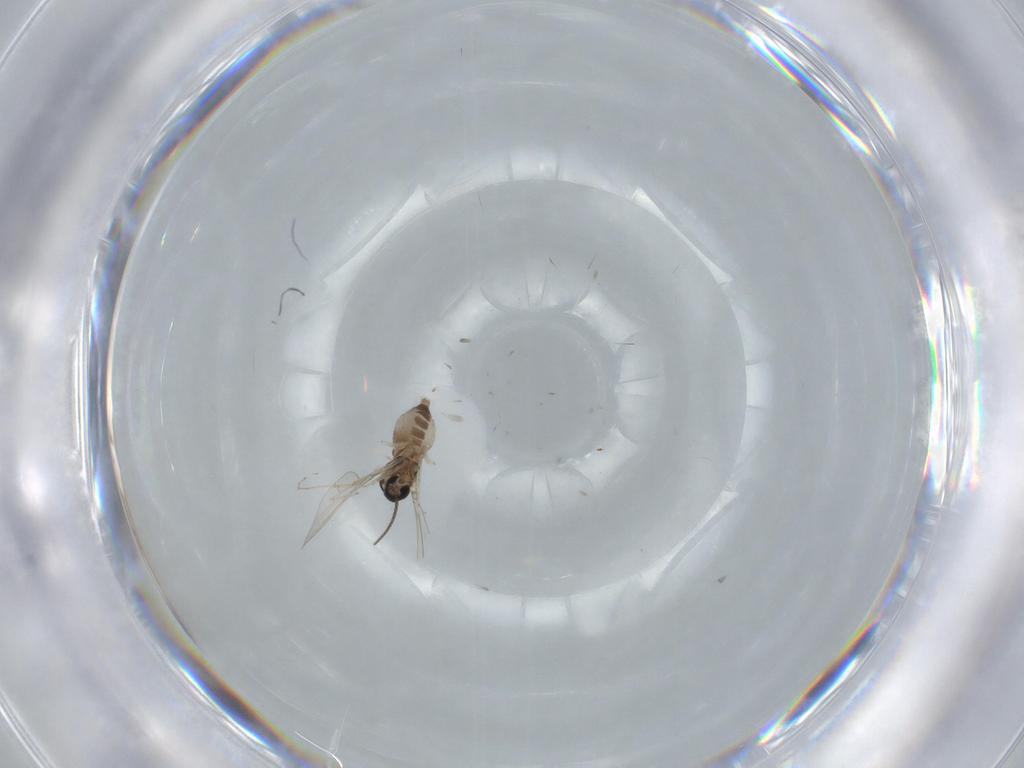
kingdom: Animalia
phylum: Arthropoda
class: Insecta
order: Diptera
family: Cecidomyiidae
